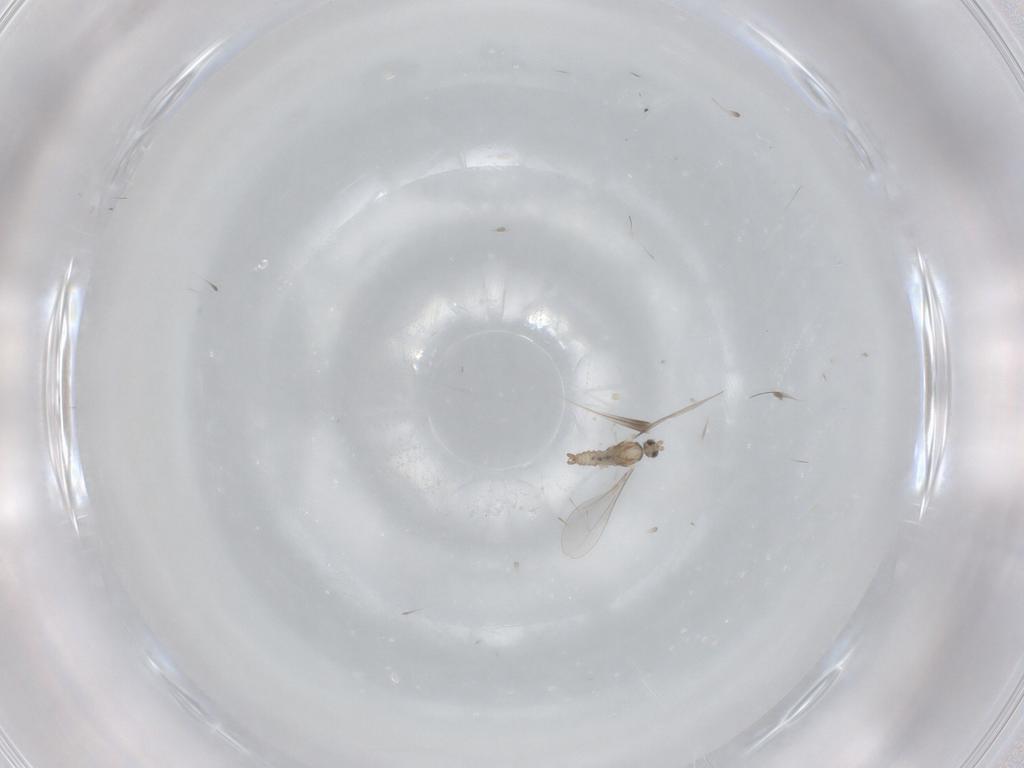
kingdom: Animalia
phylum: Arthropoda
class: Insecta
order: Diptera
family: Cecidomyiidae
